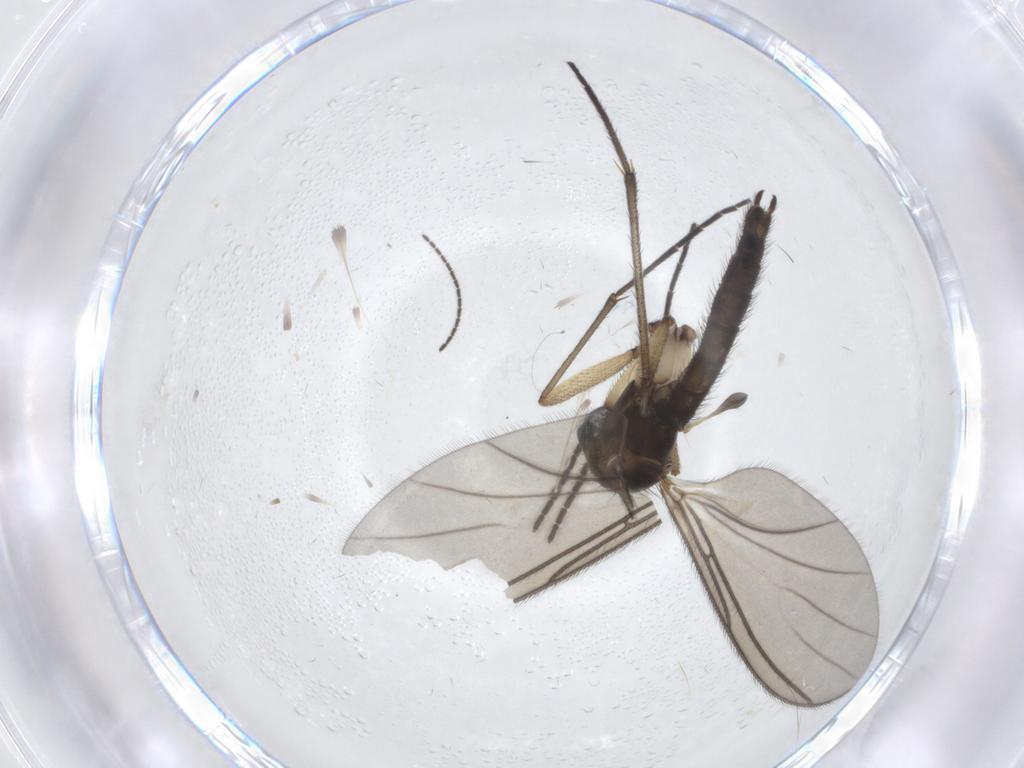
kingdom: Animalia
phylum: Arthropoda
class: Insecta
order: Diptera
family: Sciaridae
